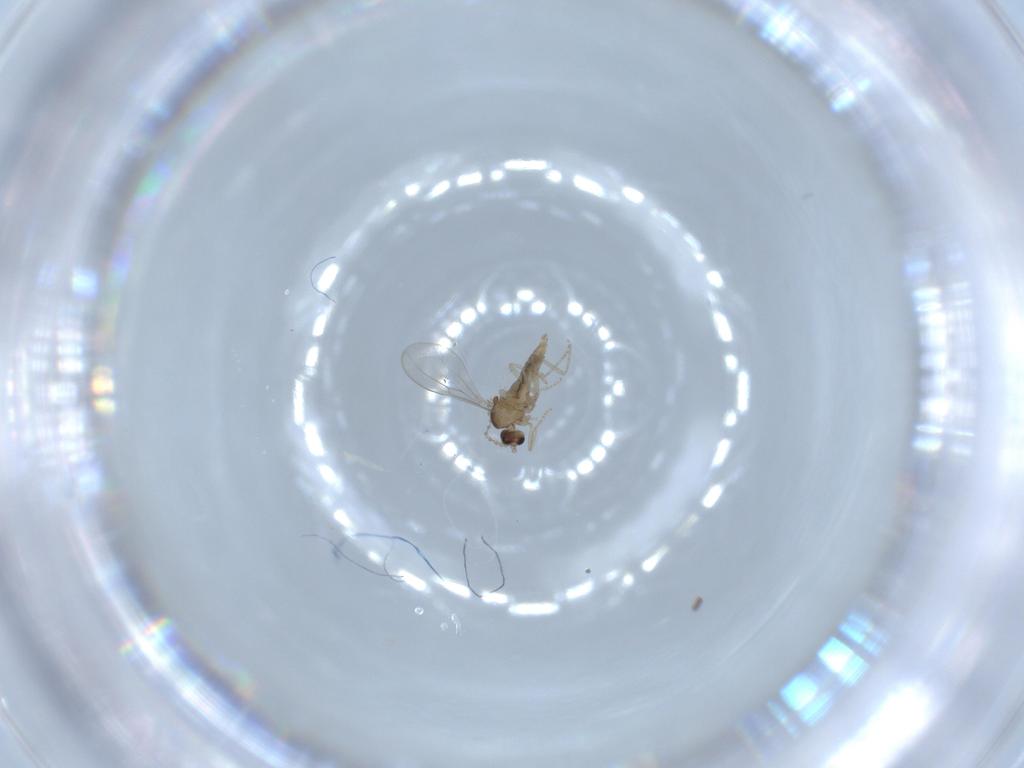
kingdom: Animalia
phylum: Arthropoda
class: Insecta
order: Diptera
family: Cecidomyiidae
